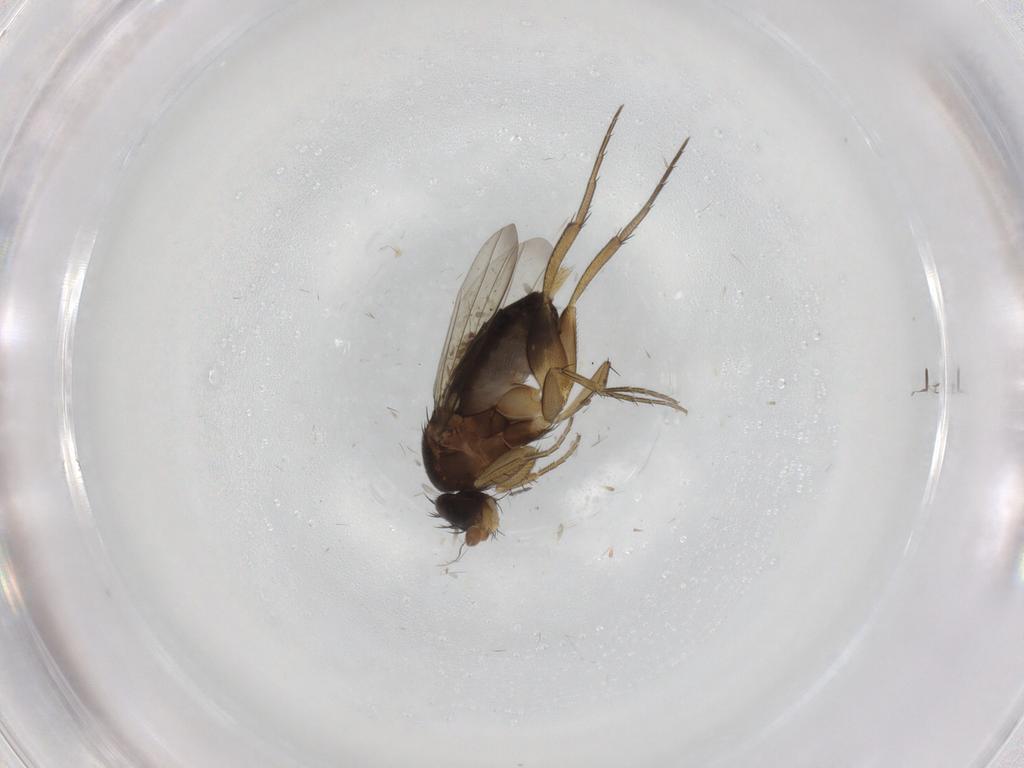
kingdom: Animalia
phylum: Arthropoda
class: Insecta
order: Diptera
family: Phoridae
